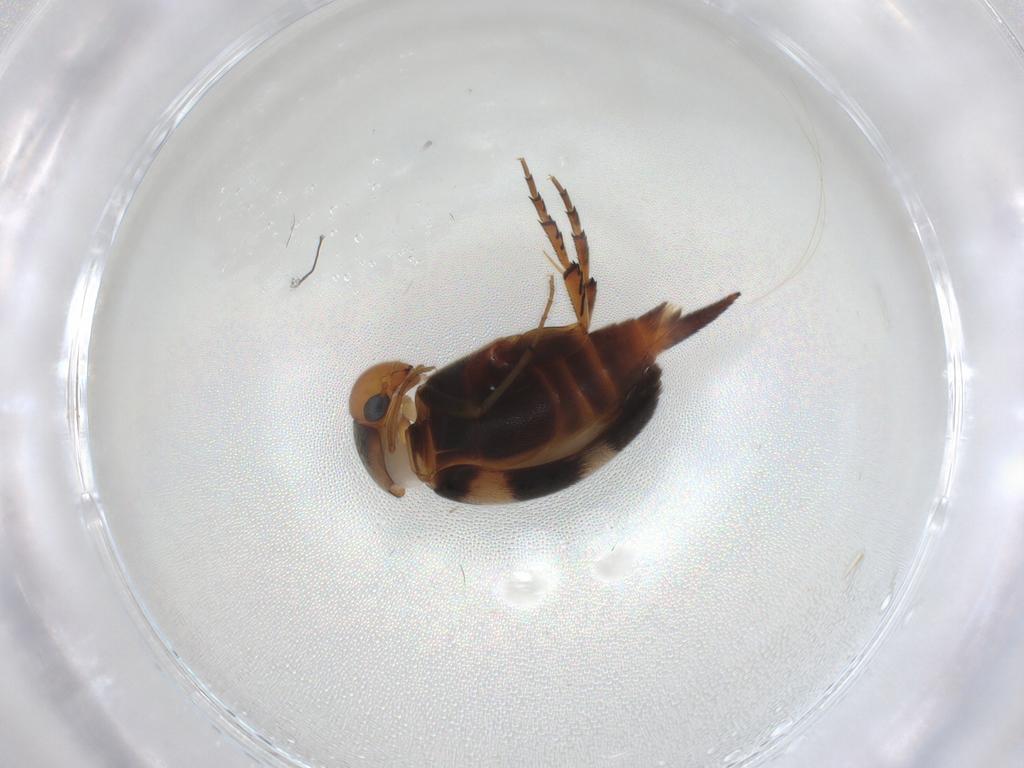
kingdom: Animalia
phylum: Arthropoda
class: Insecta
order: Coleoptera
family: Mordellidae
